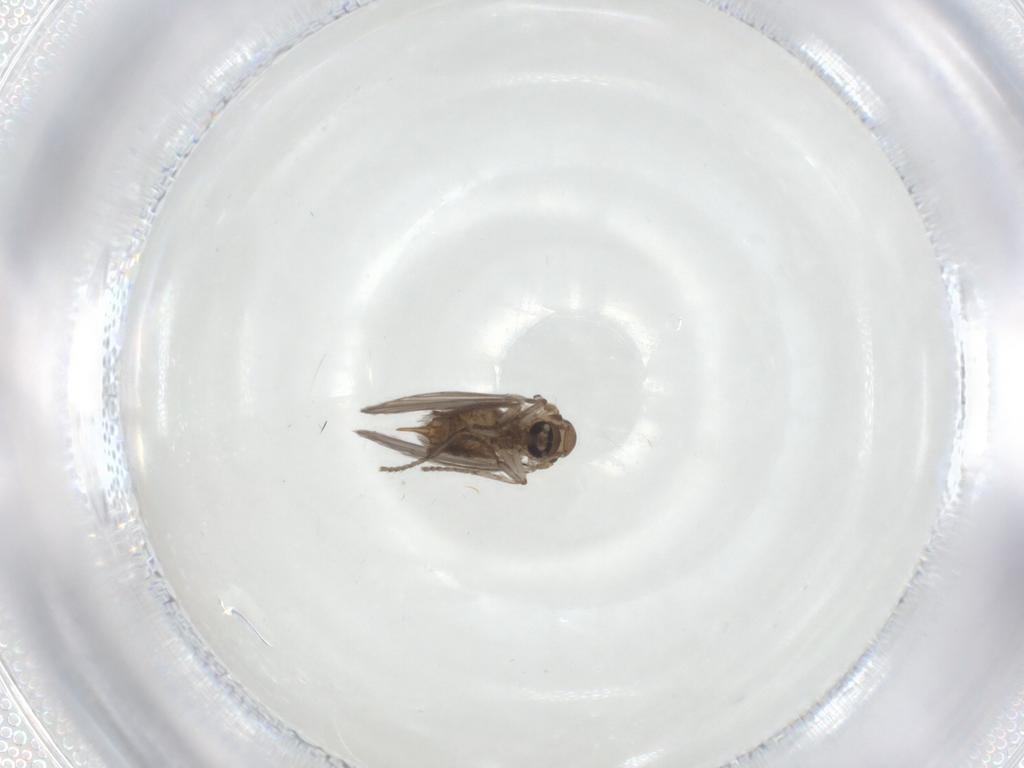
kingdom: Animalia
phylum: Arthropoda
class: Insecta
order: Diptera
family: Psychodidae
